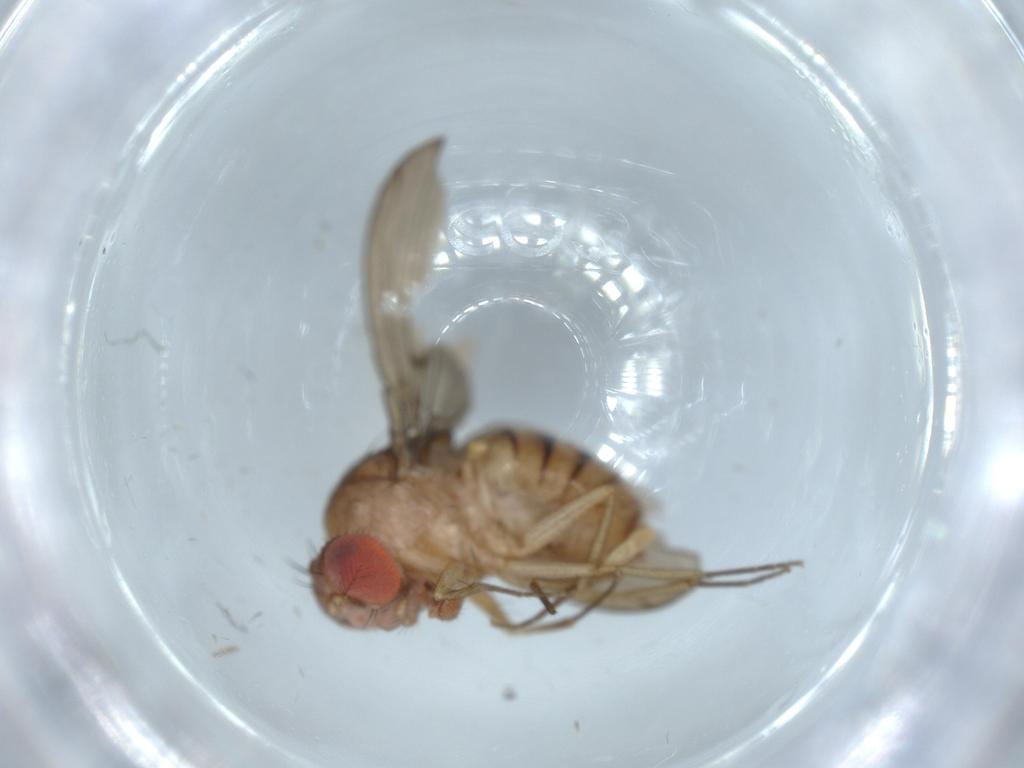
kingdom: Animalia
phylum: Arthropoda
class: Insecta
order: Diptera
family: Drosophilidae
